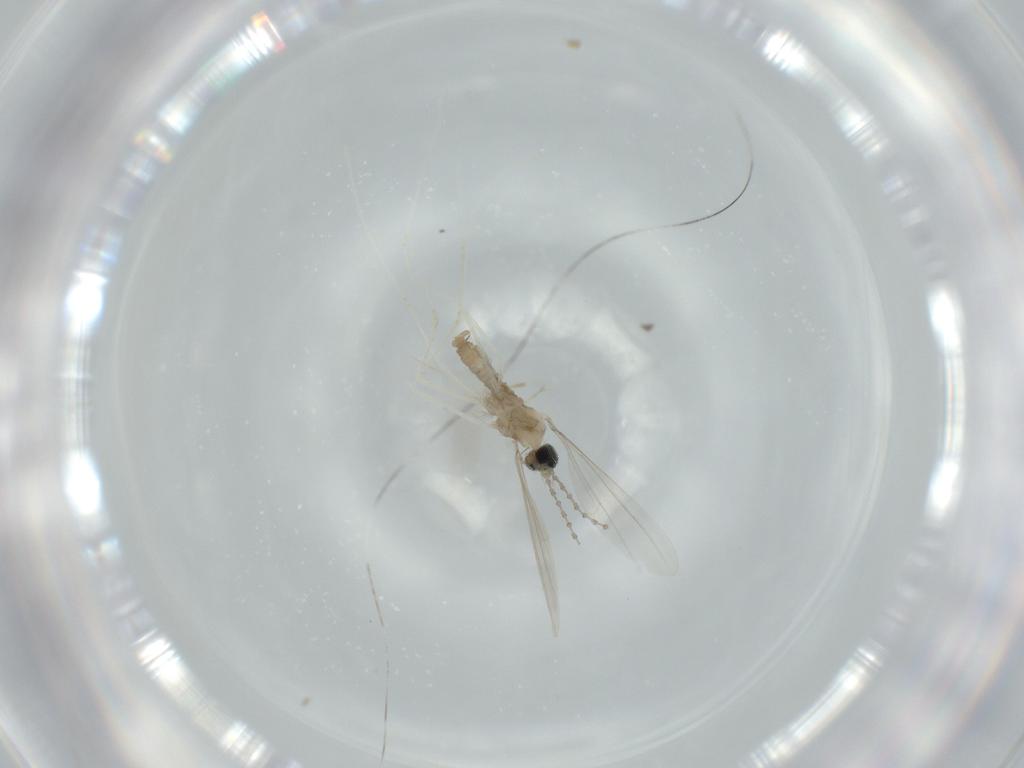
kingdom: Animalia
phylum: Arthropoda
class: Insecta
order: Diptera
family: Cecidomyiidae
